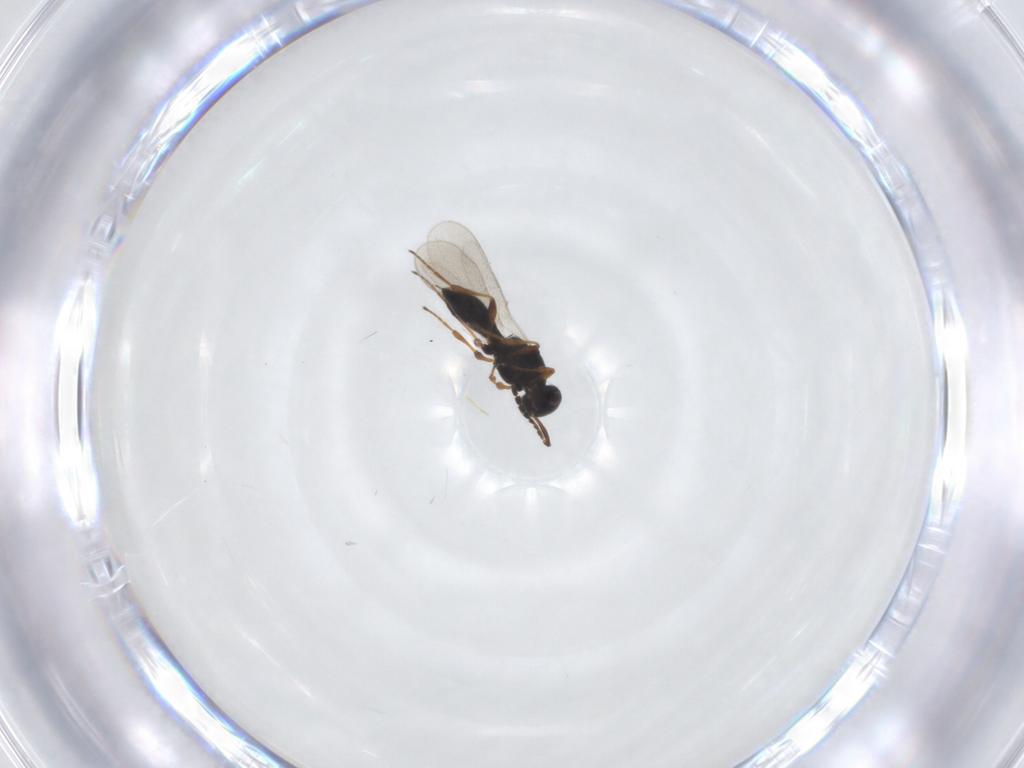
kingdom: Animalia
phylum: Arthropoda
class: Insecta
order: Hymenoptera
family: Platygastridae
